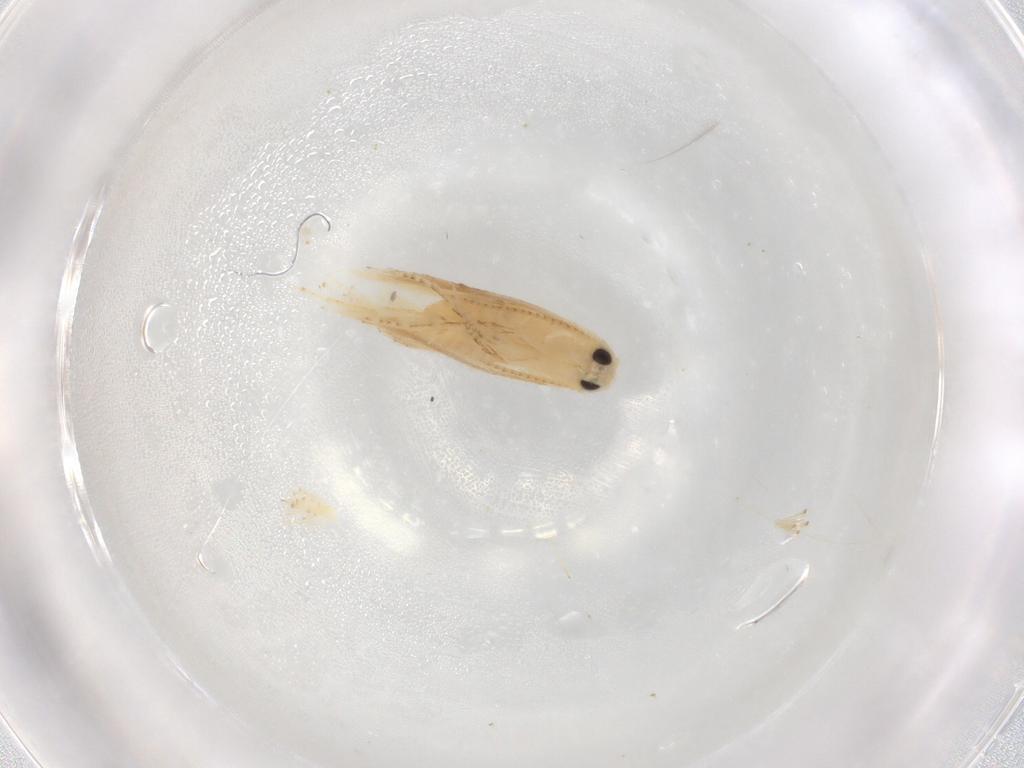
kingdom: Animalia
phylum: Arthropoda
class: Insecta
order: Lepidoptera
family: Depressariidae
